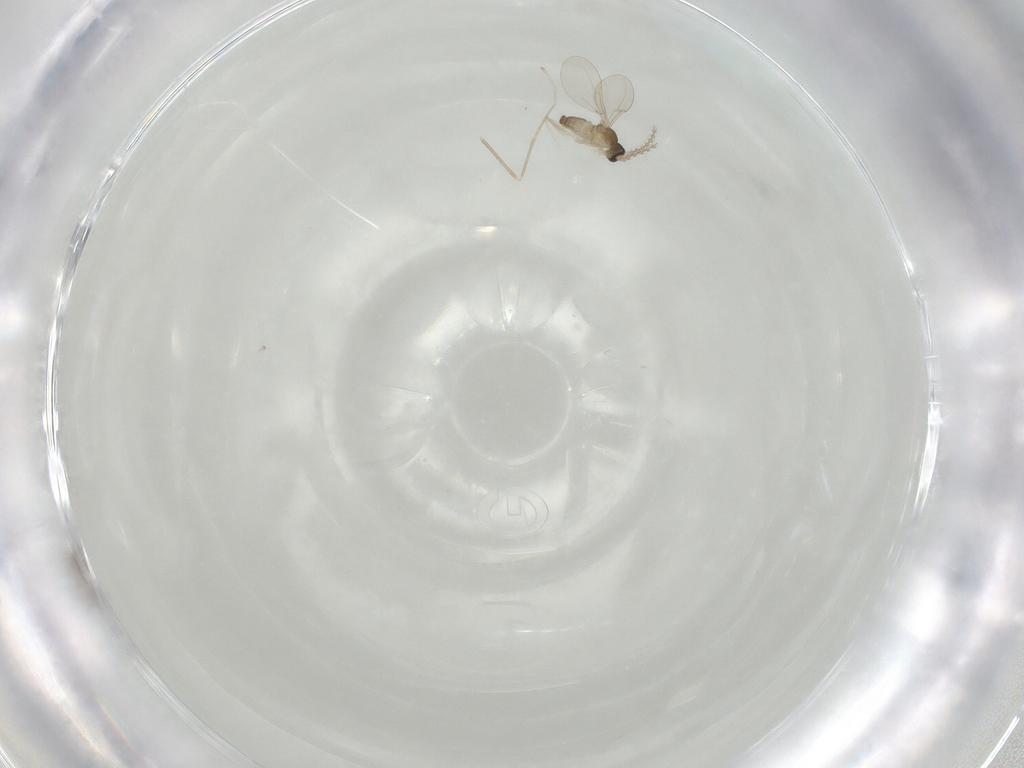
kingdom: Animalia
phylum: Arthropoda
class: Insecta
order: Diptera
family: Chironomidae
